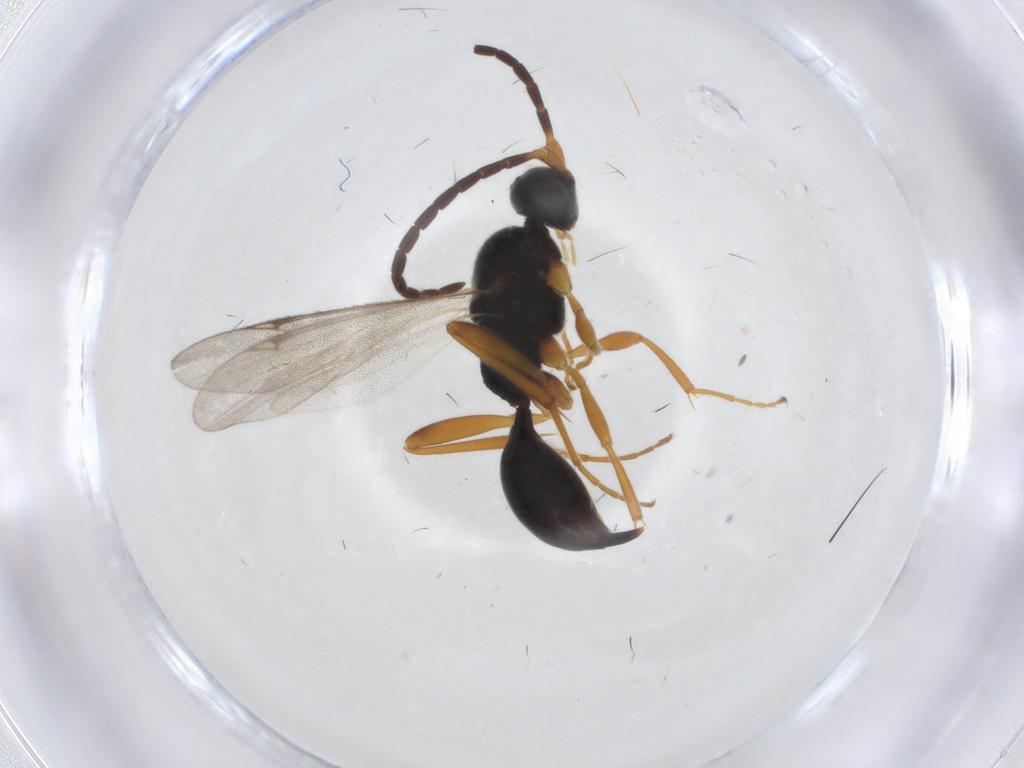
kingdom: Animalia
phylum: Arthropoda
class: Insecta
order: Hymenoptera
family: Proctotrupidae
